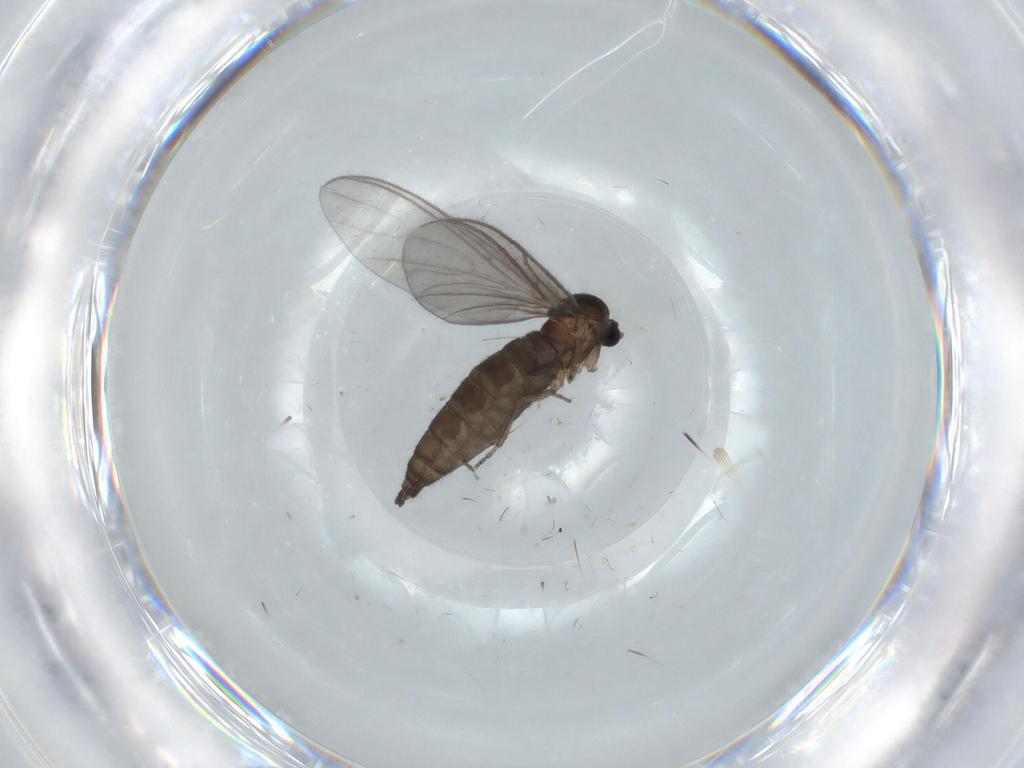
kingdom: Animalia
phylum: Arthropoda
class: Insecta
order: Diptera
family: Sciaridae
